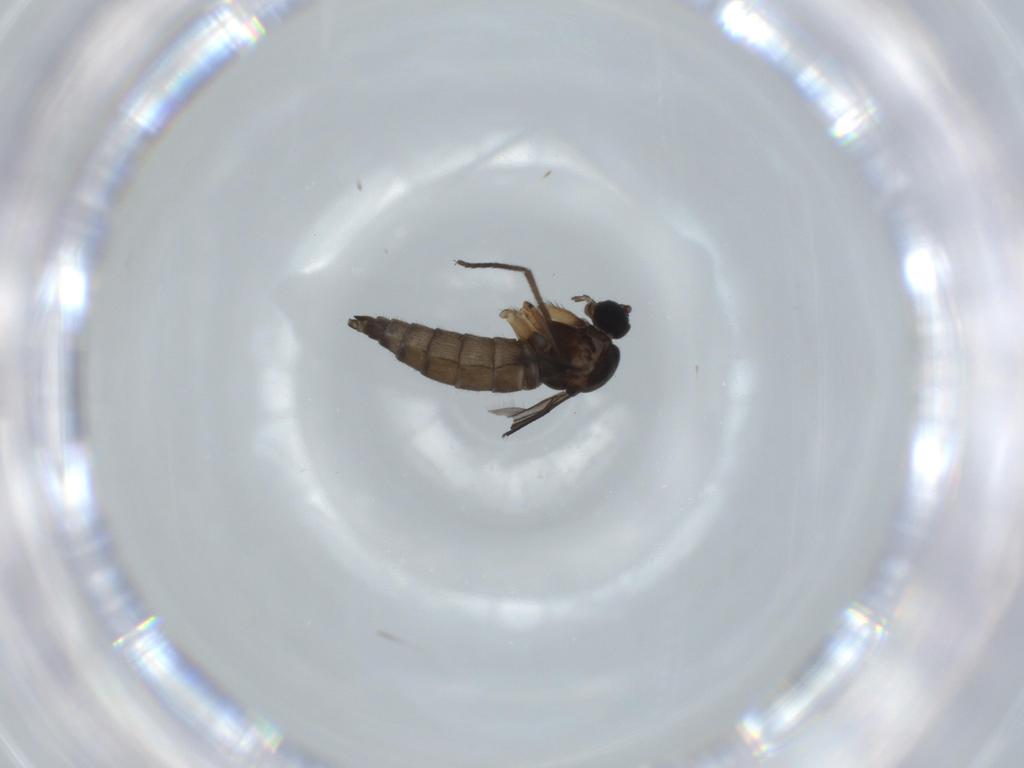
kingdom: Animalia
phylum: Arthropoda
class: Insecta
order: Diptera
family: Sciaridae
